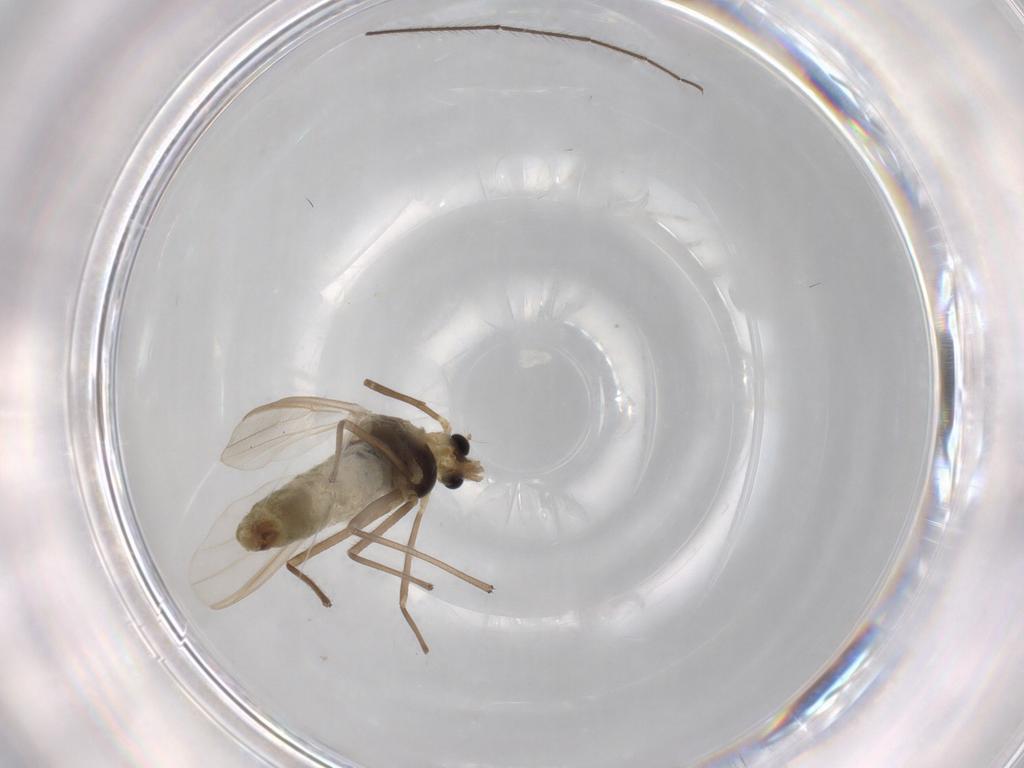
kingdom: Animalia
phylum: Arthropoda
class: Insecta
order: Diptera
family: Chironomidae
